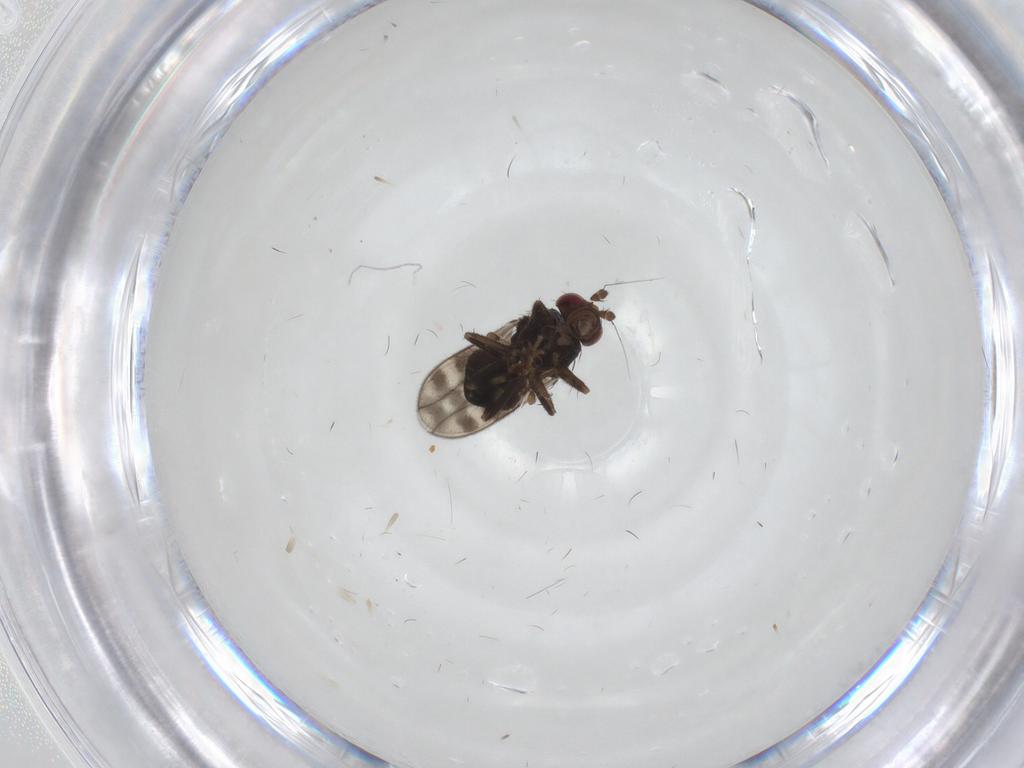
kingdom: Animalia
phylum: Arthropoda
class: Insecta
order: Diptera
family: Sphaeroceridae
